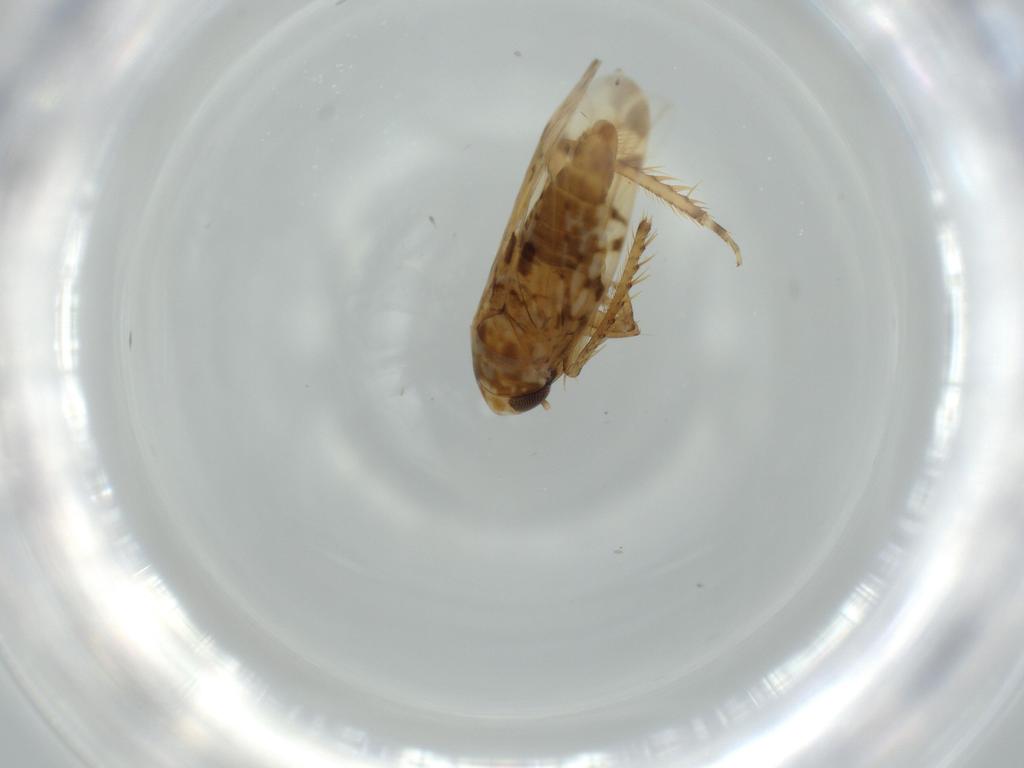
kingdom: Animalia
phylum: Arthropoda
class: Insecta
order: Hemiptera
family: Cicadellidae
